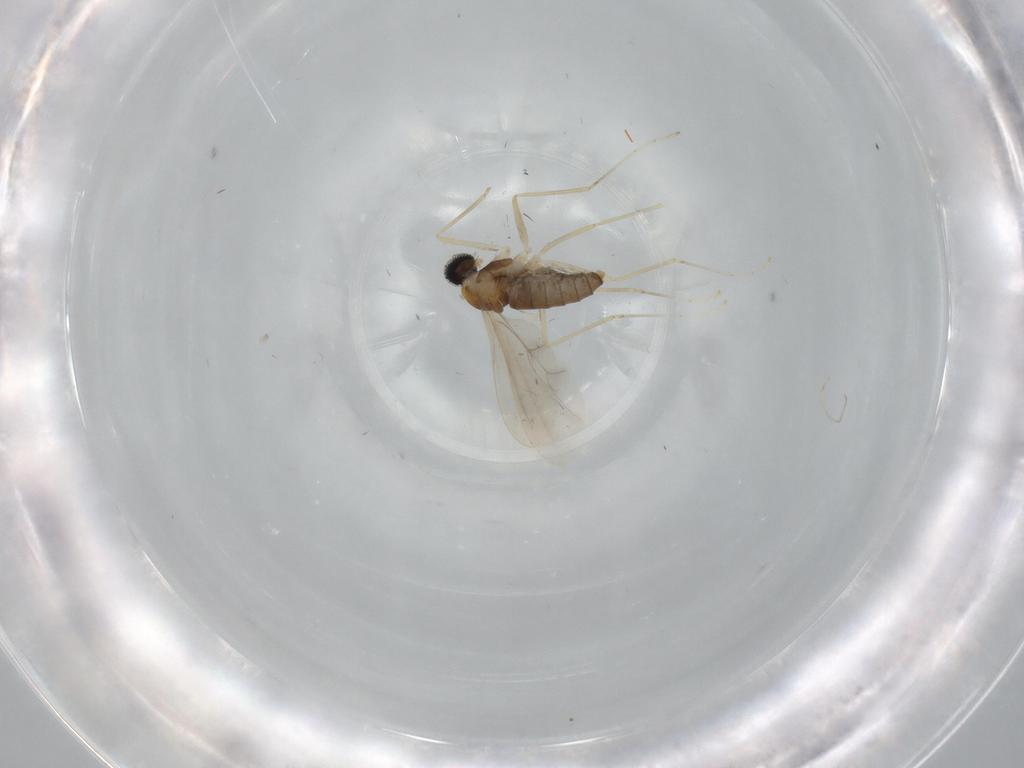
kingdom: Animalia
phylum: Arthropoda
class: Insecta
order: Diptera
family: Cecidomyiidae
